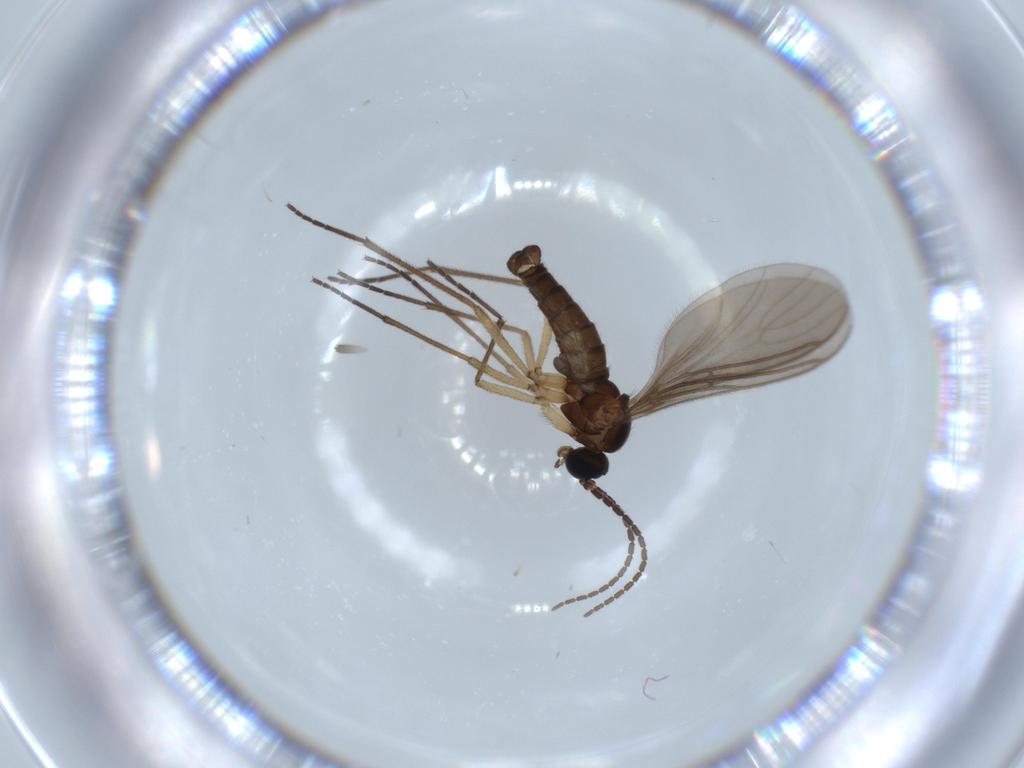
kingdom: Animalia
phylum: Arthropoda
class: Insecta
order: Diptera
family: Sciaridae
